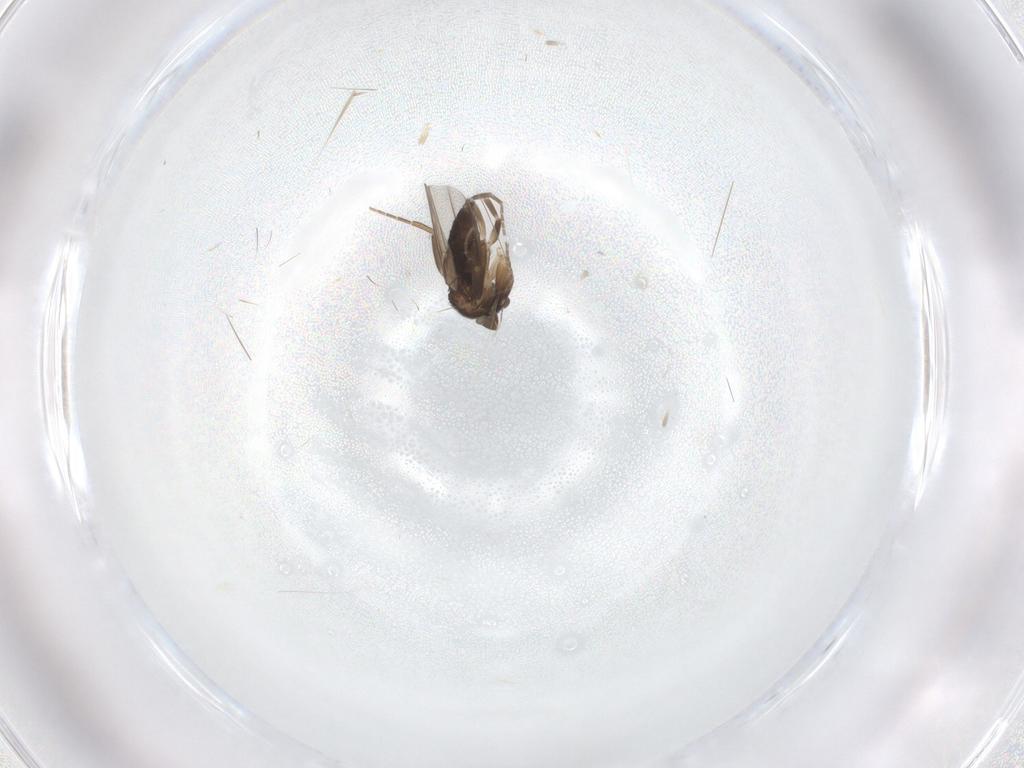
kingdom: Animalia
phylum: Arthropoda
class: Insecta
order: Diptera
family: Phoridae
